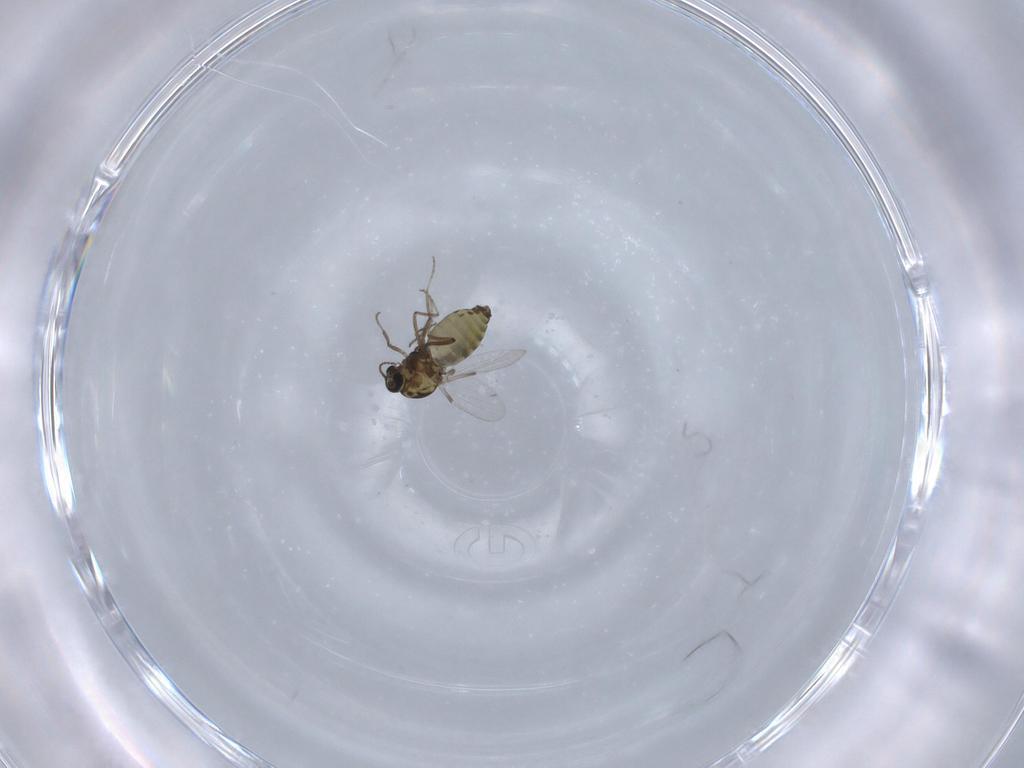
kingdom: Animalia
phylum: Arthropoda
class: Insecta
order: Diptera
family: Ceratopogonidae
